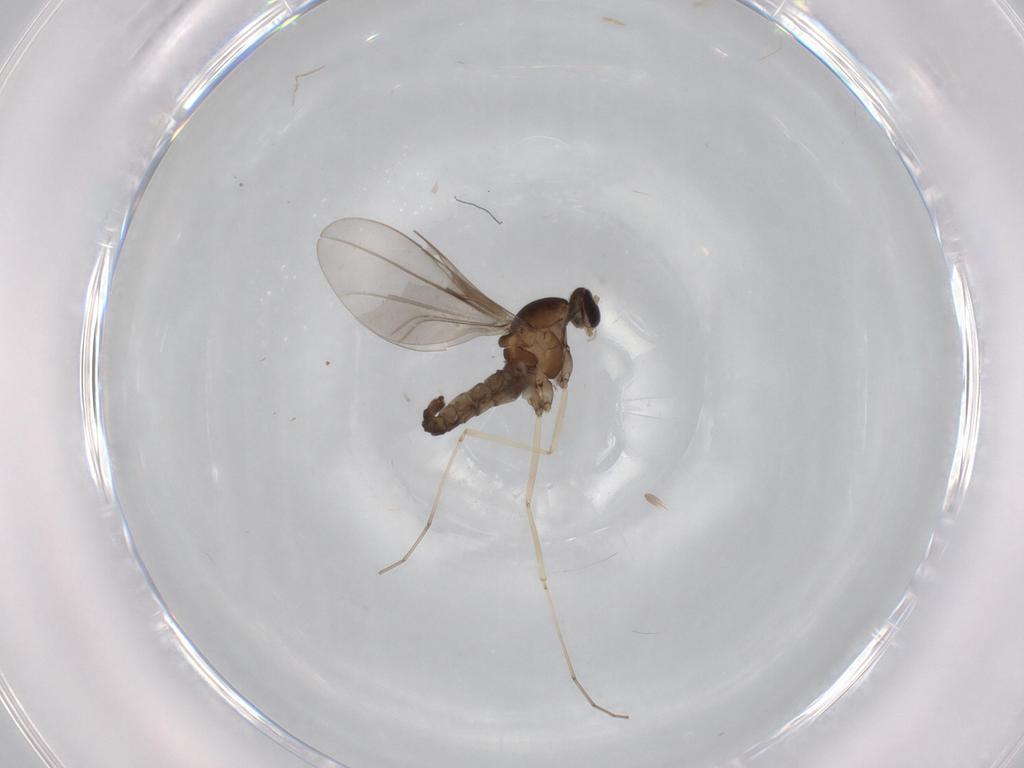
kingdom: Animalia
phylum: Arthropoda
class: Insecta
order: Diptera
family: Cecidomyiidae
